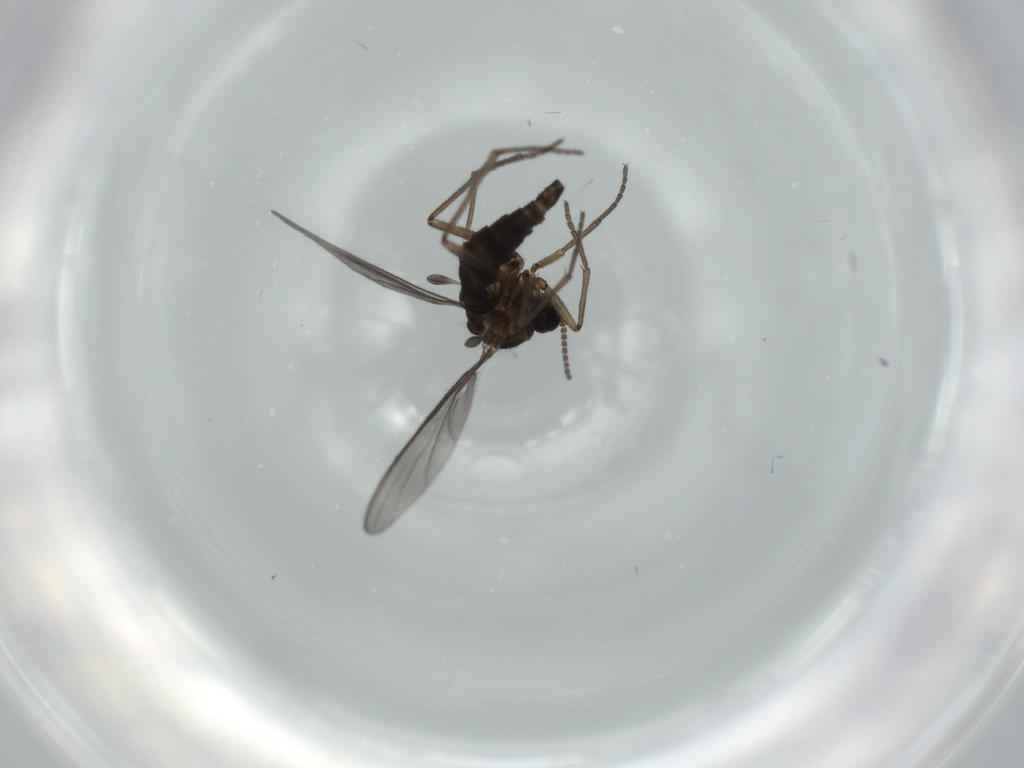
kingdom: Animalia
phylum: Arthropoda
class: Insecta
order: Diptera
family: Sciaridae
